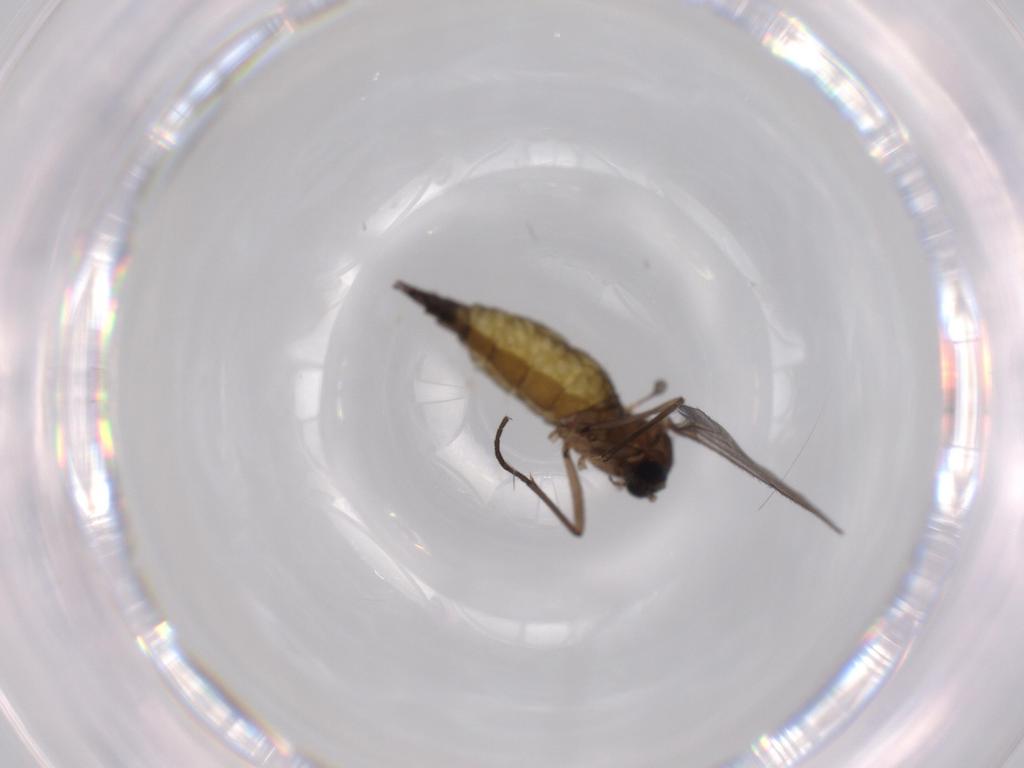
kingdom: Animalia
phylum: Arthropoda
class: Insecta
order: Diptera
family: Sciaridae
